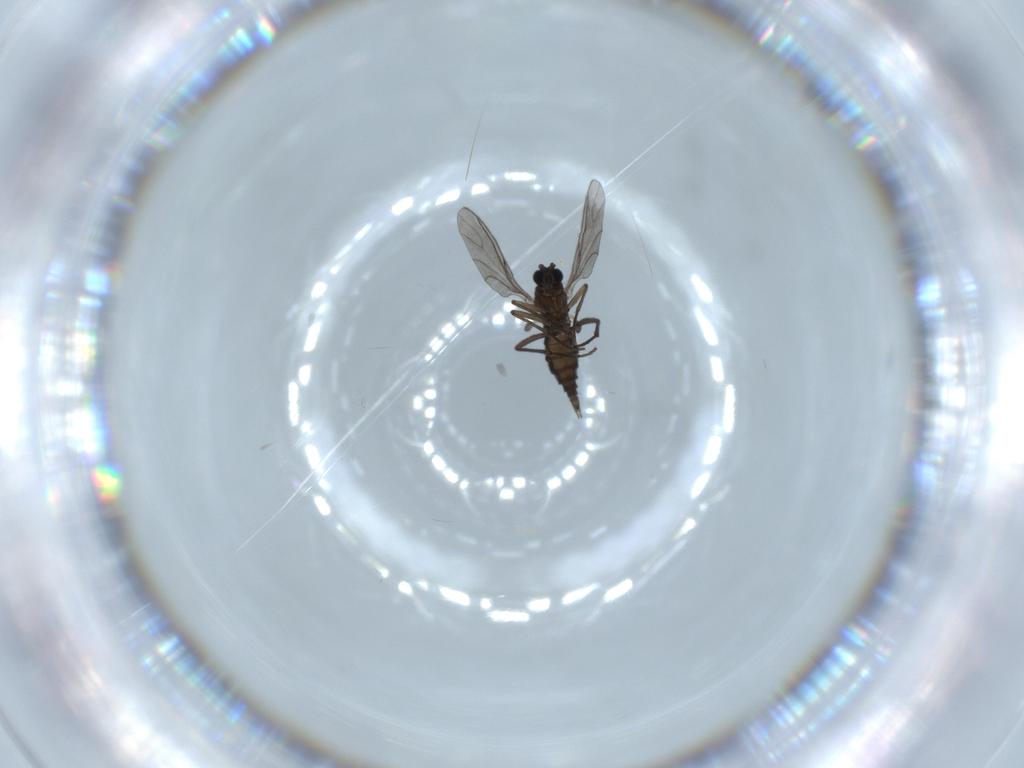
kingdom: Animalia
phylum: Arthropoda
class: Insecta
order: Diptera
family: Sciaridae
